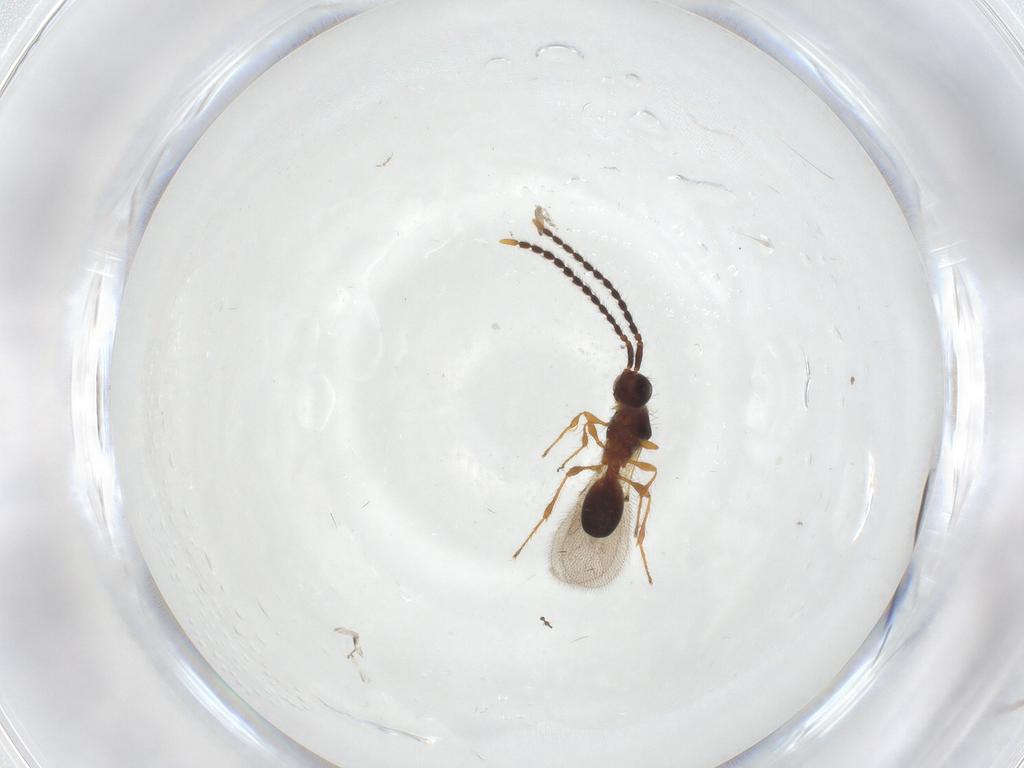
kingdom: Animalia
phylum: Arthropoda
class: Insecta
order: Hymenoptera
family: Diapriidae
